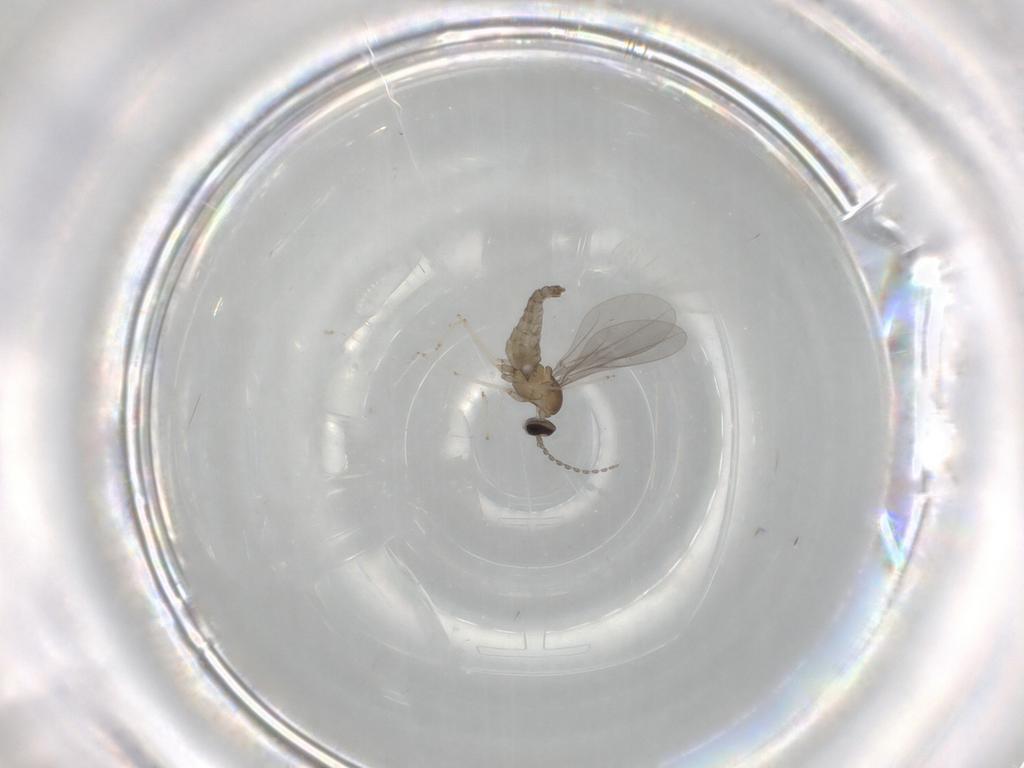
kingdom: Animalia
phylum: Arthropoda
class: Insecta
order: Diptera
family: Cecidomyiidae
